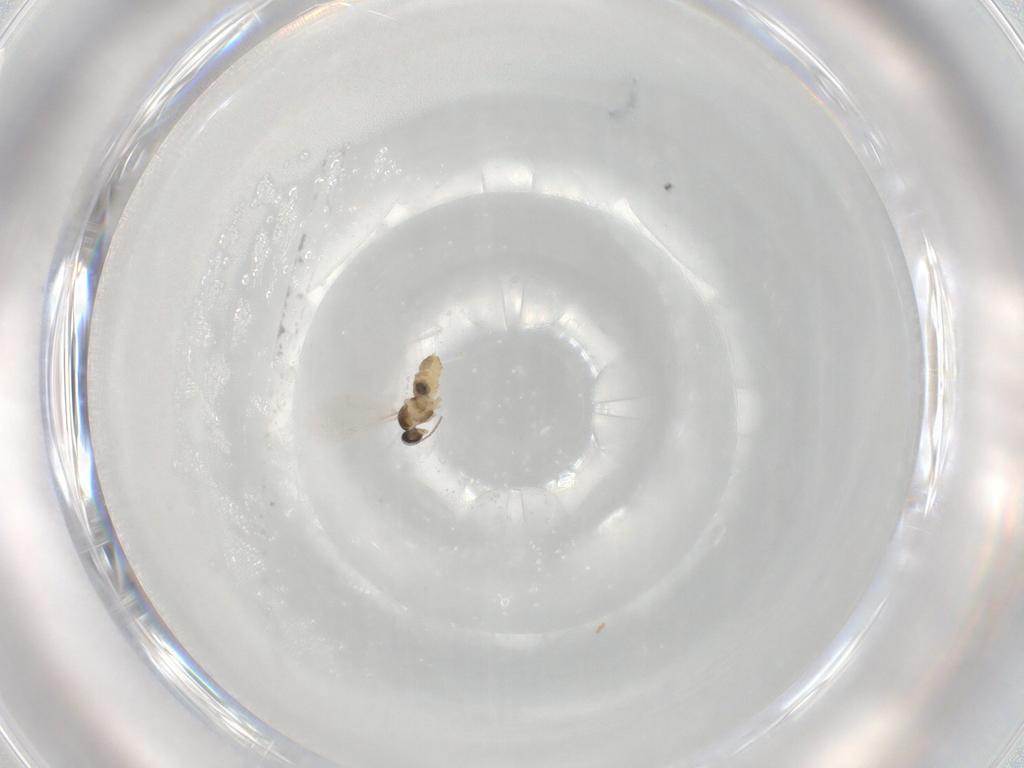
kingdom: Animalia
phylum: Arthropoda
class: Insecta
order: Diptera
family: Cecidomyiidae
